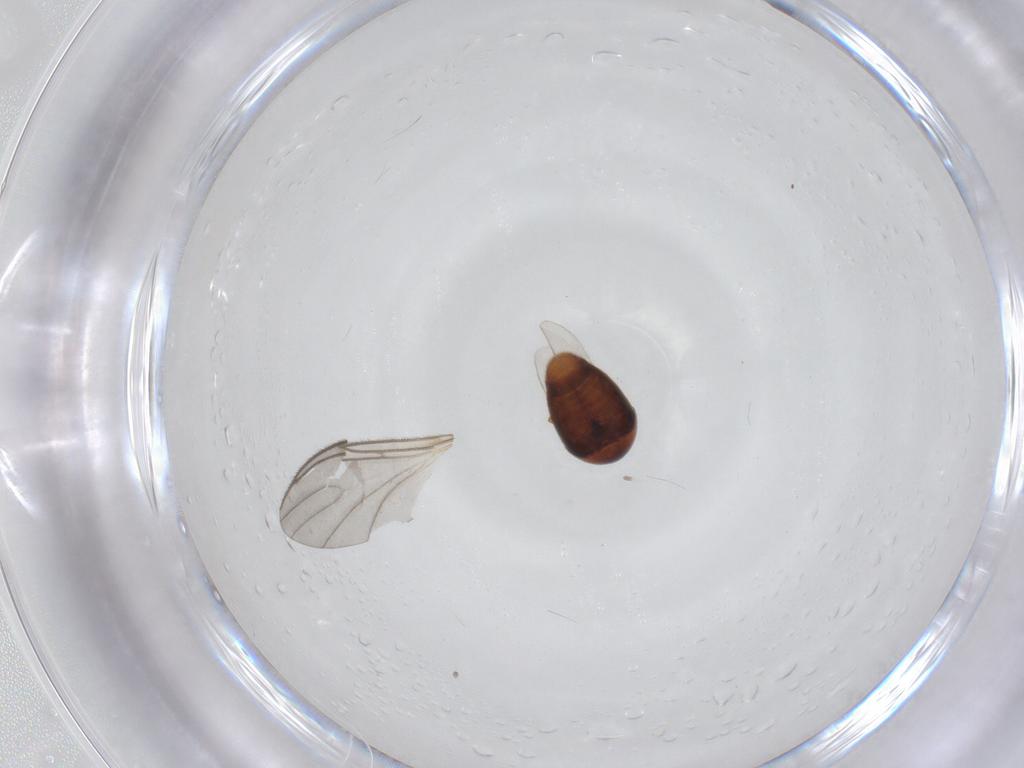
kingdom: Animalia
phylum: Arthropoda
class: Insecta
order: Coleoptera
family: Corylophidae
